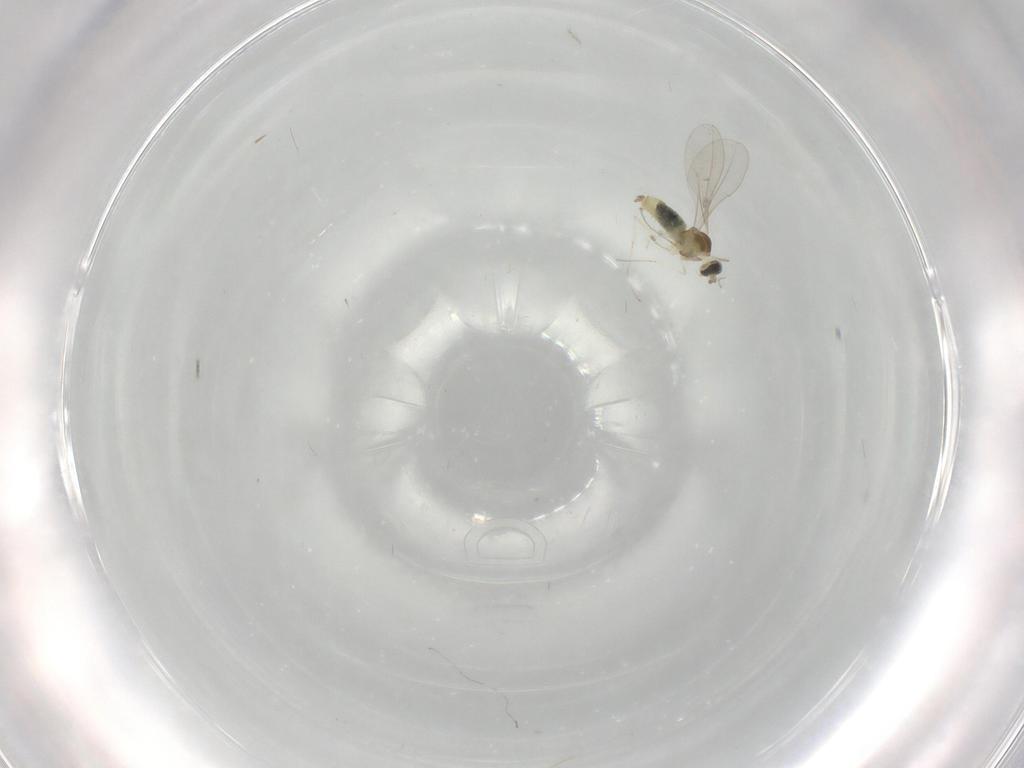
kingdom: Animalia
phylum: Arthropoda
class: Insecta
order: Diptera
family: Cecidomyiidae
